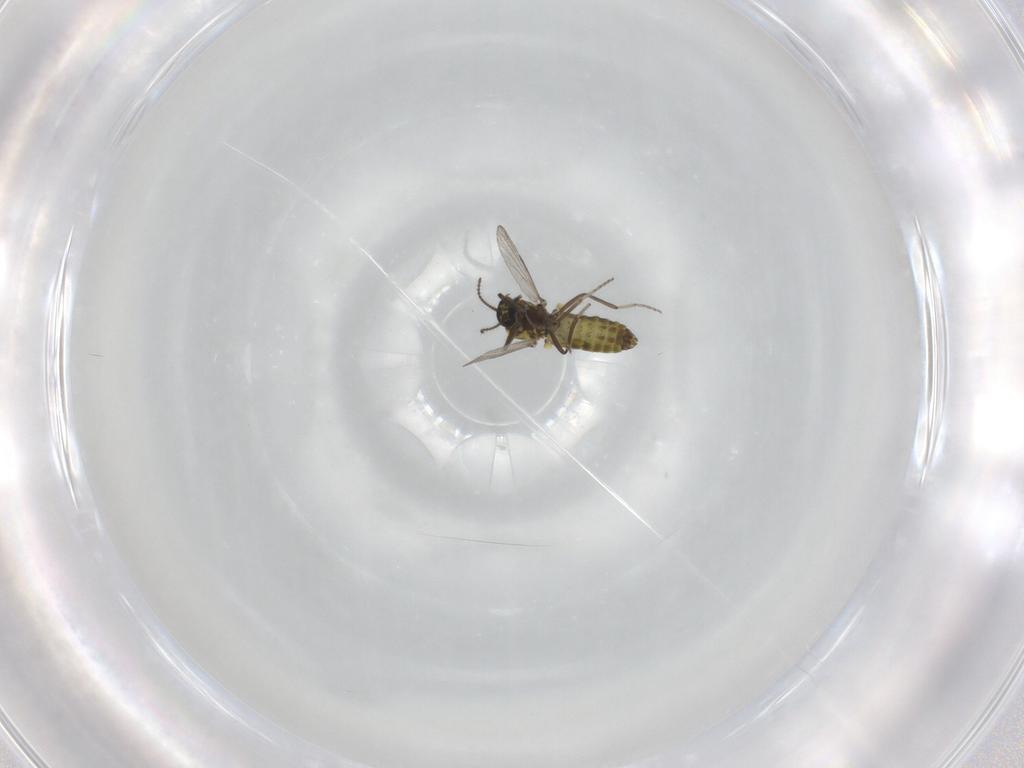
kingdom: Animalia
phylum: Arthropoda
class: Insecta
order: Diptera
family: Ceratopogonidae
